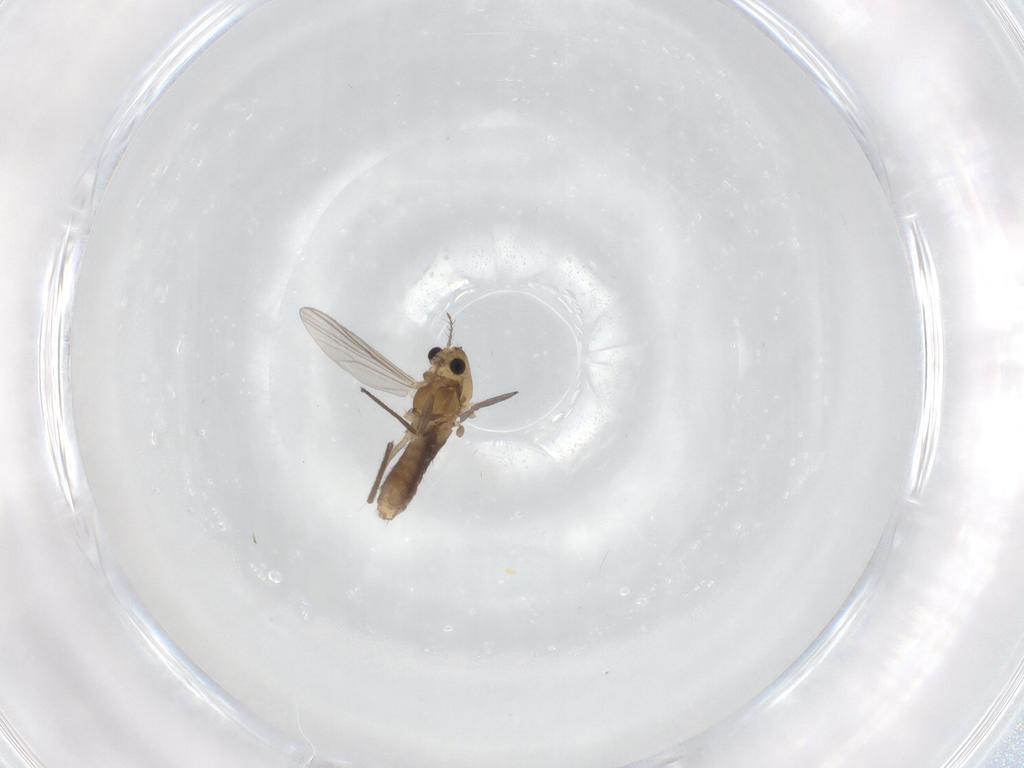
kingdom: Animalia
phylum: Arthropoda
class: Insecta
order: Diptera
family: Chironomidae
